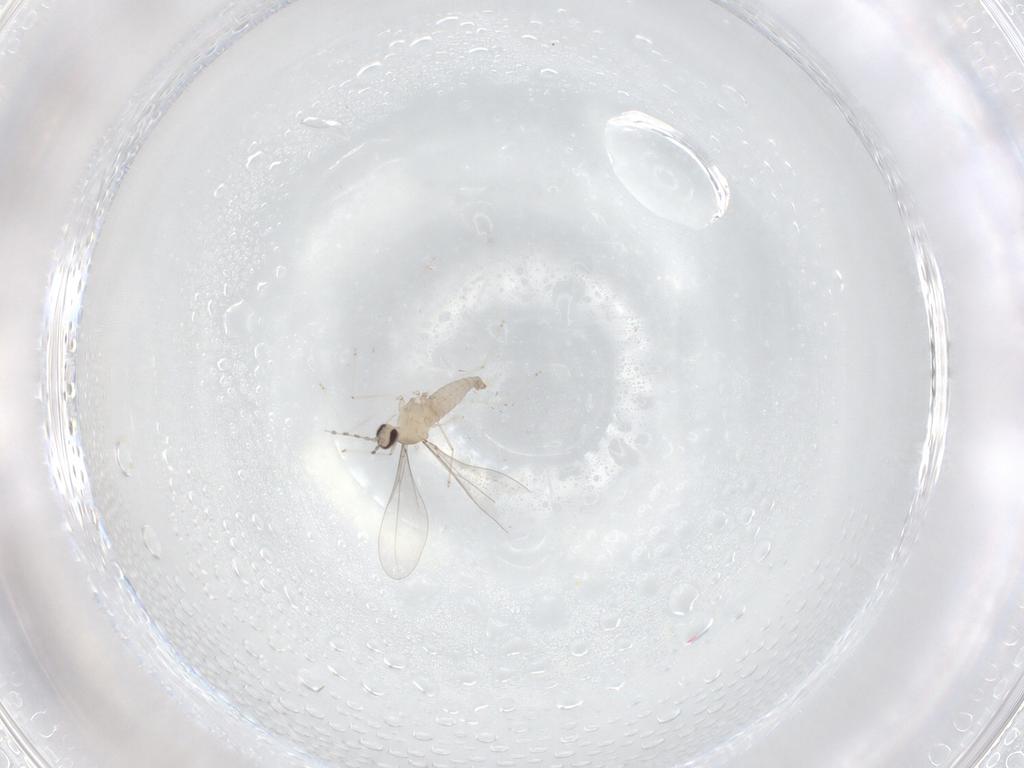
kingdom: Animalia
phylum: Arthropoda
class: Insecta
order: Diptera
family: Cecidomyiidae
